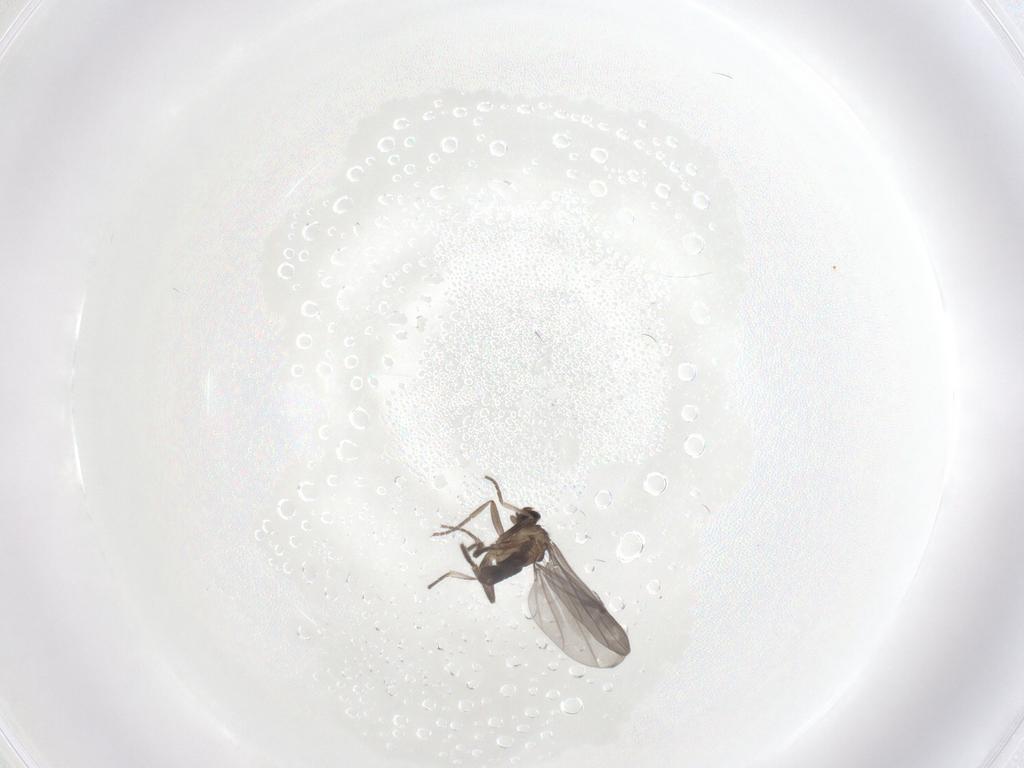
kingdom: Animalia
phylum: Arthropoda
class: Insecta
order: Diptera
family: Phoridae
